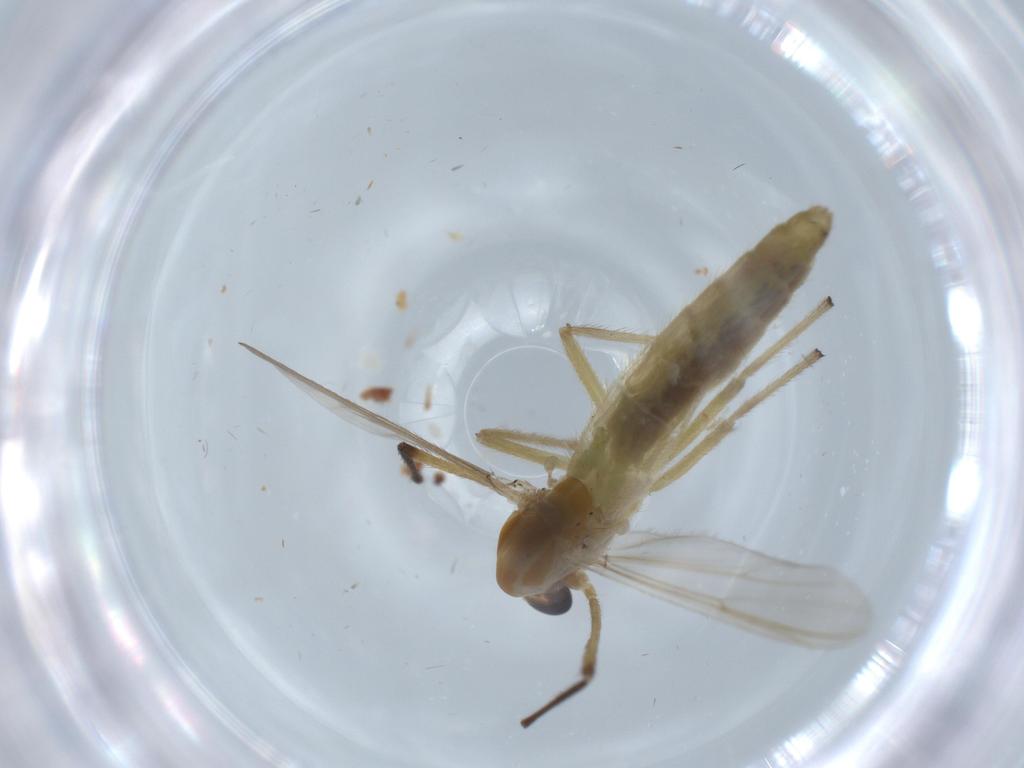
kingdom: Animalia
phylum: Arthropoda
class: Insecta
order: Diptera
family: Chironomidae
